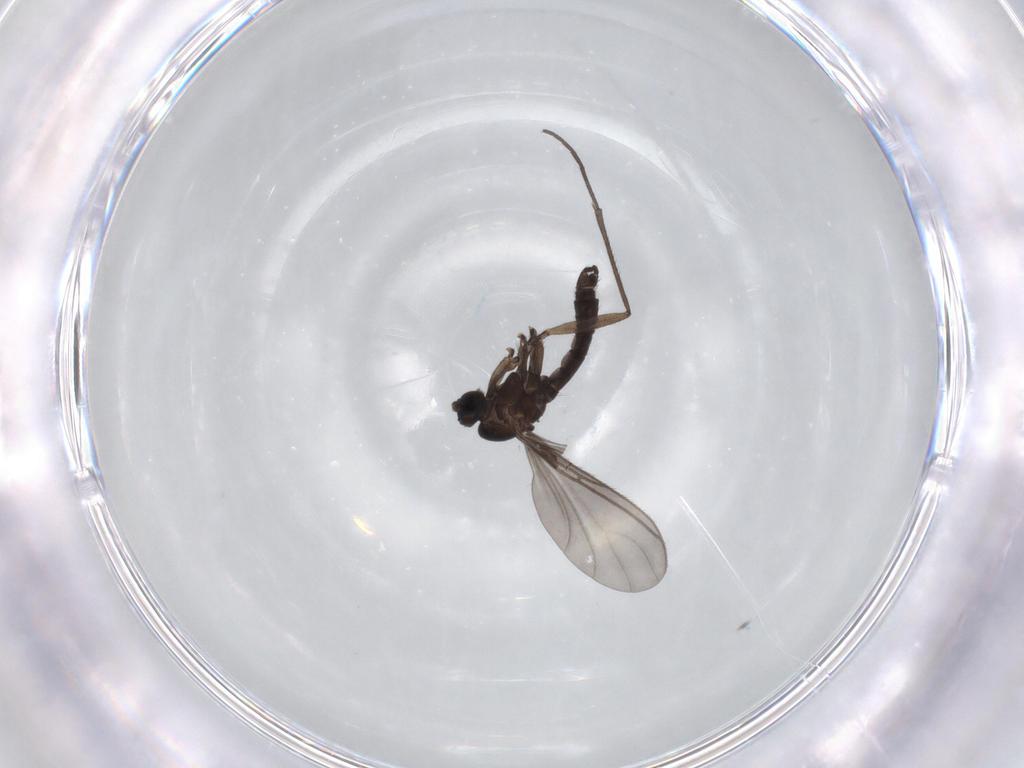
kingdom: Animalia
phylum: Arthropoda
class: Insecta
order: Diptera
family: Sciaridae
